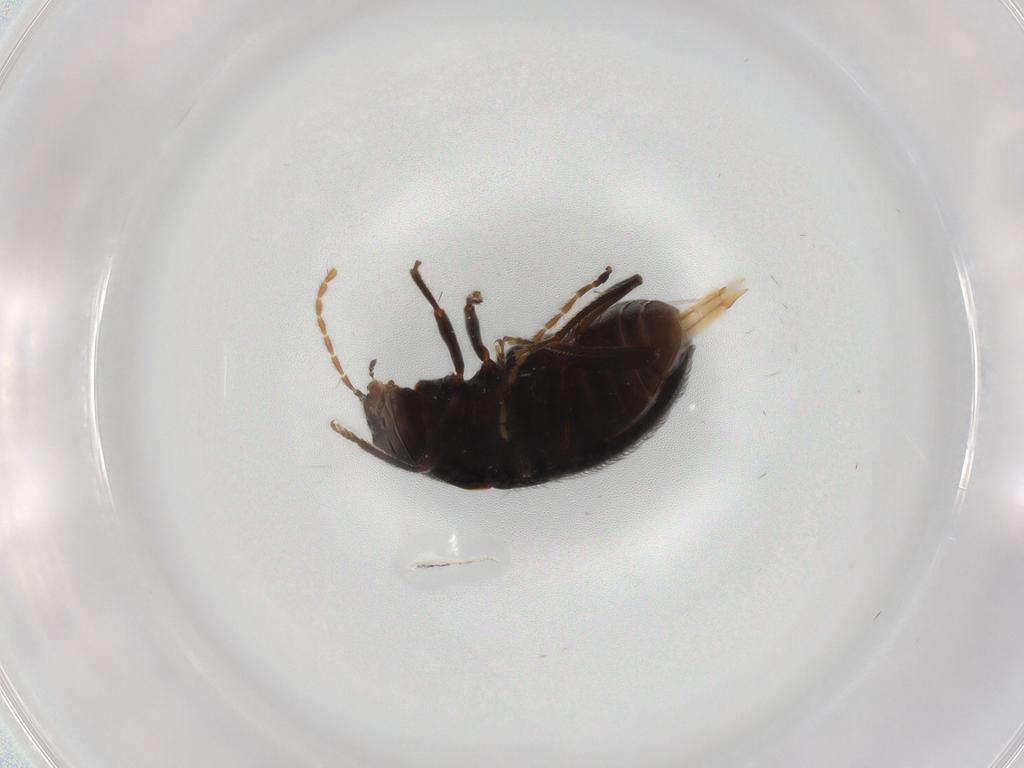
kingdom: Animalia
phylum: Arthropoda
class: Insecta
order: Coleoptera
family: Ptilodactylidae
